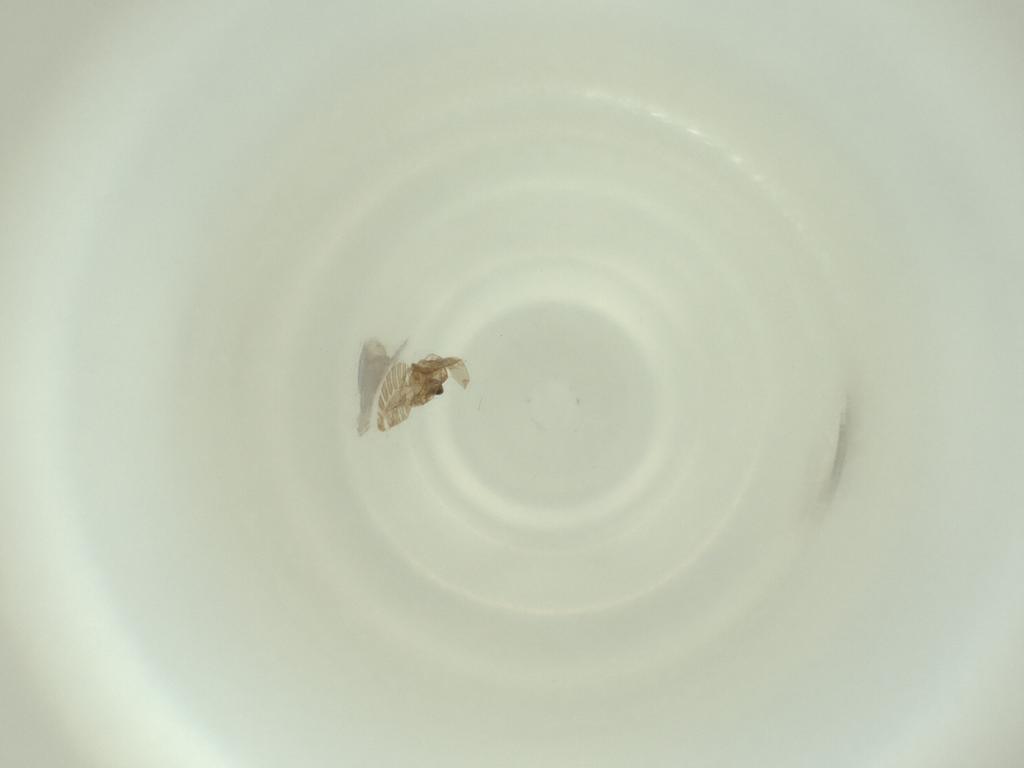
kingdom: Animalia
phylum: Arthropoda
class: Insecta
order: Diptera
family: Cecidomyiidae
